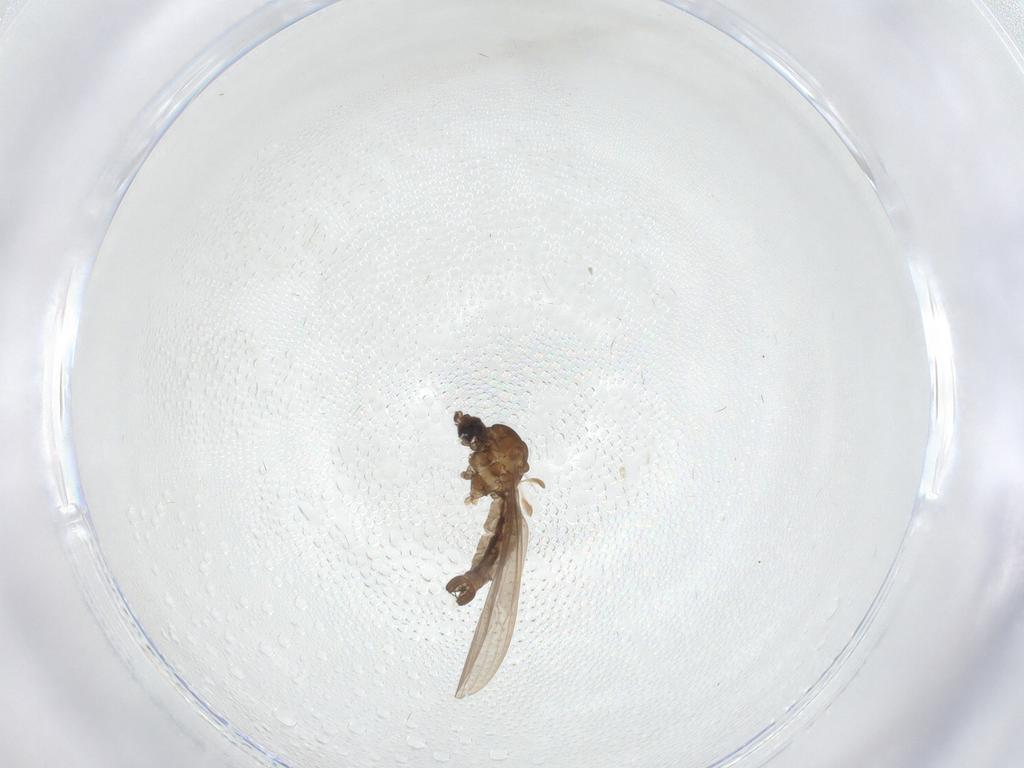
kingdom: Animalia
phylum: Arthropoda
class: Insecta
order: Diptera
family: Limoniidae
